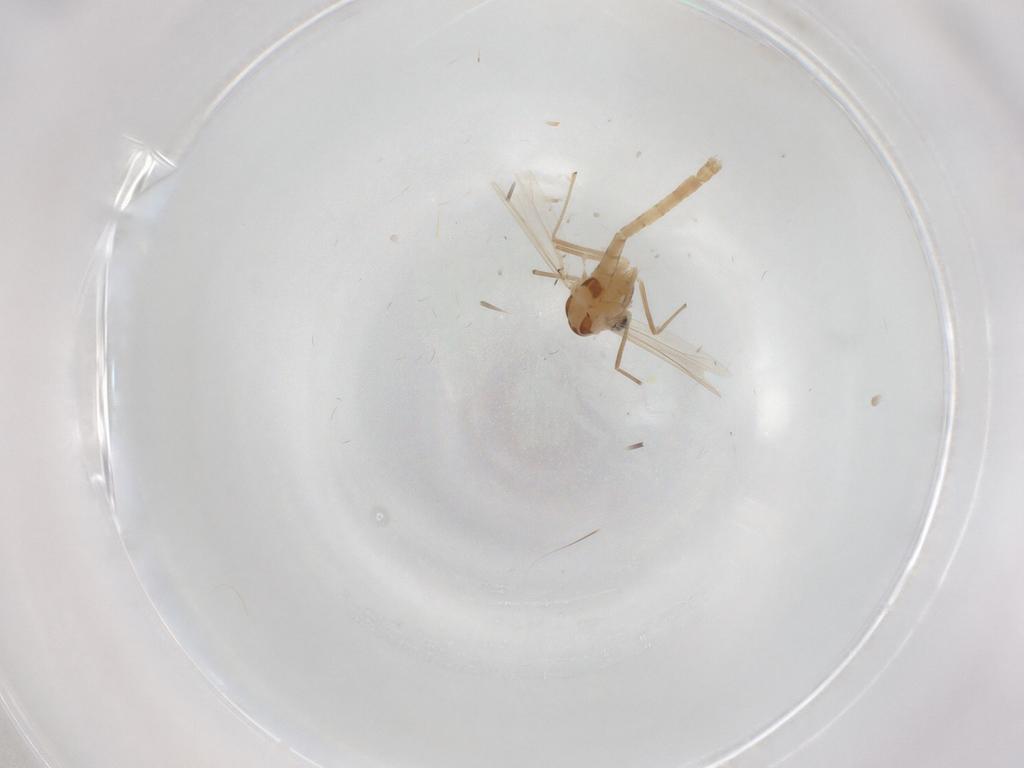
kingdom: Animalia
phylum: Arthropoda
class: Insecta
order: Diptera
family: Chironomidae
